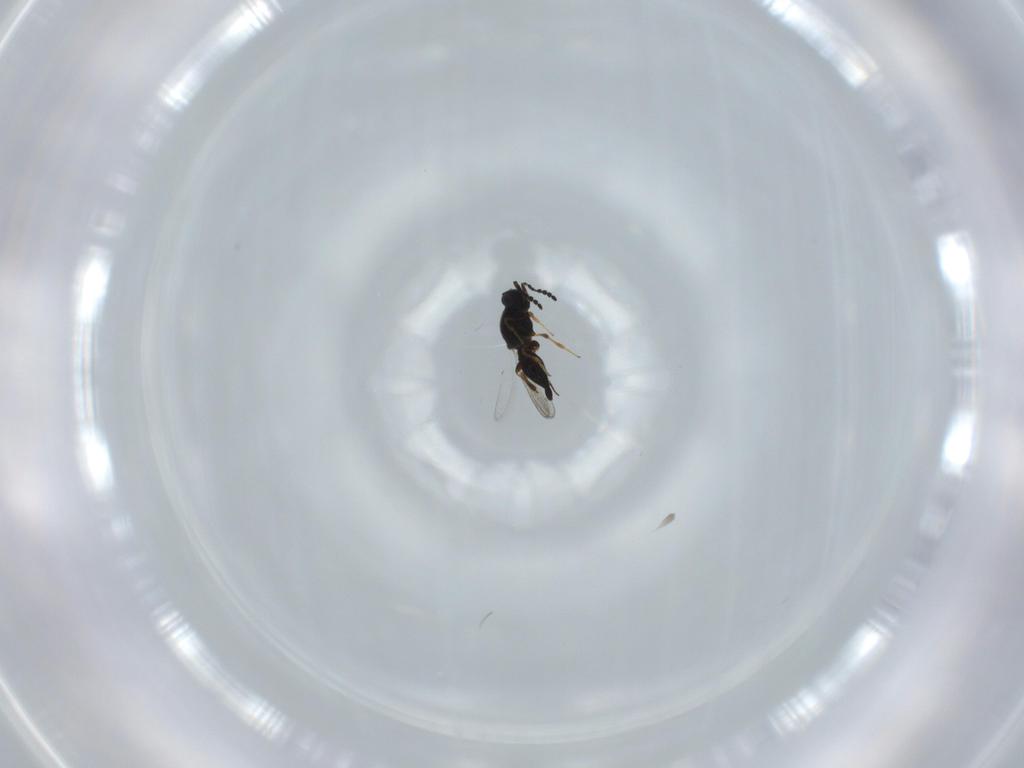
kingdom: Animalia
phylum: Arthropoda
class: Insecta
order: Hymenoptera
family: Platygastridae
